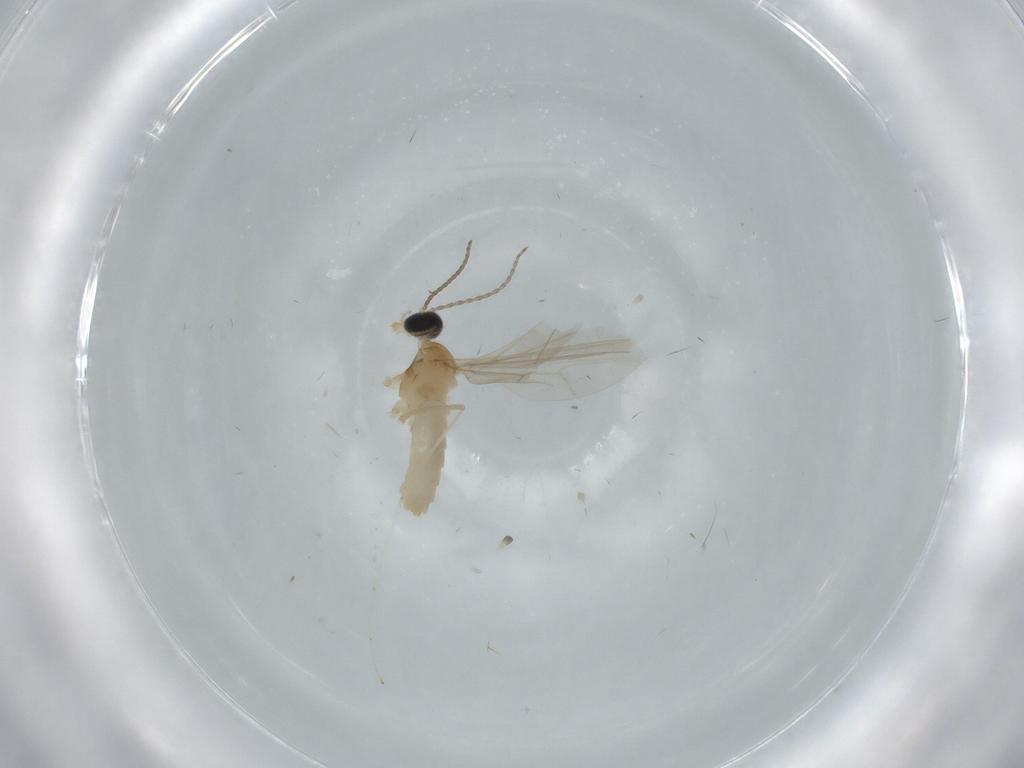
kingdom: Animalia
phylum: Arthropoda
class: Insecta
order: Diptera
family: Cecidomyiidae
